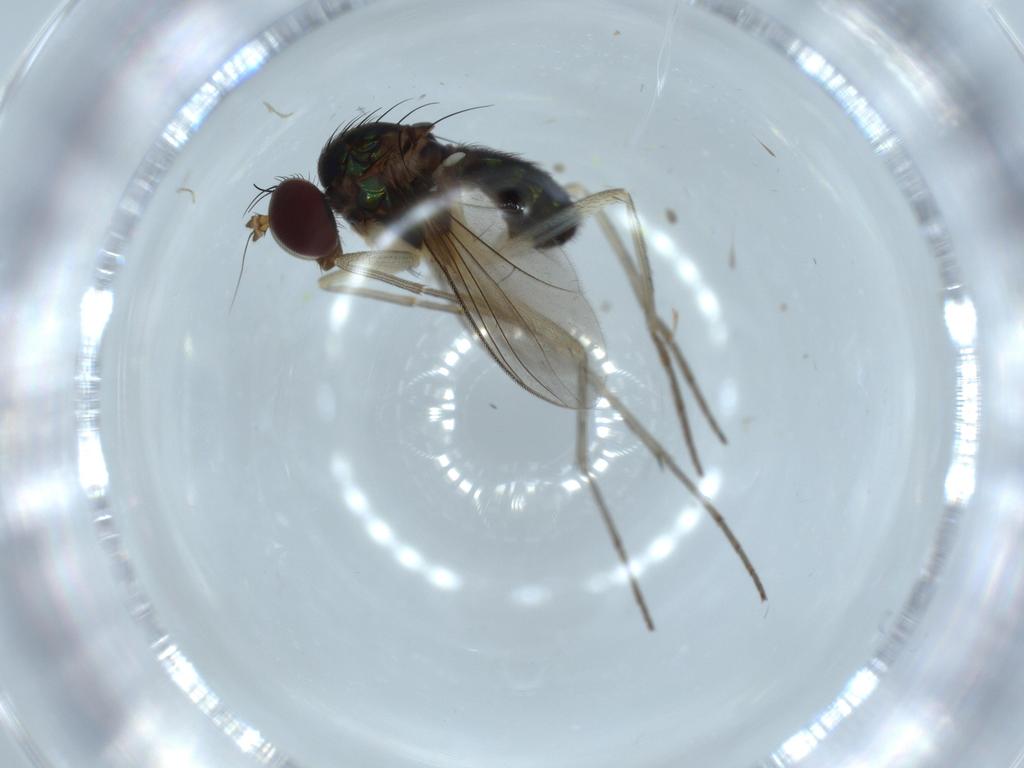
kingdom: Animalia
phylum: Arthropoda
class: Insecta
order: Diptera
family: Dolichopodidae
